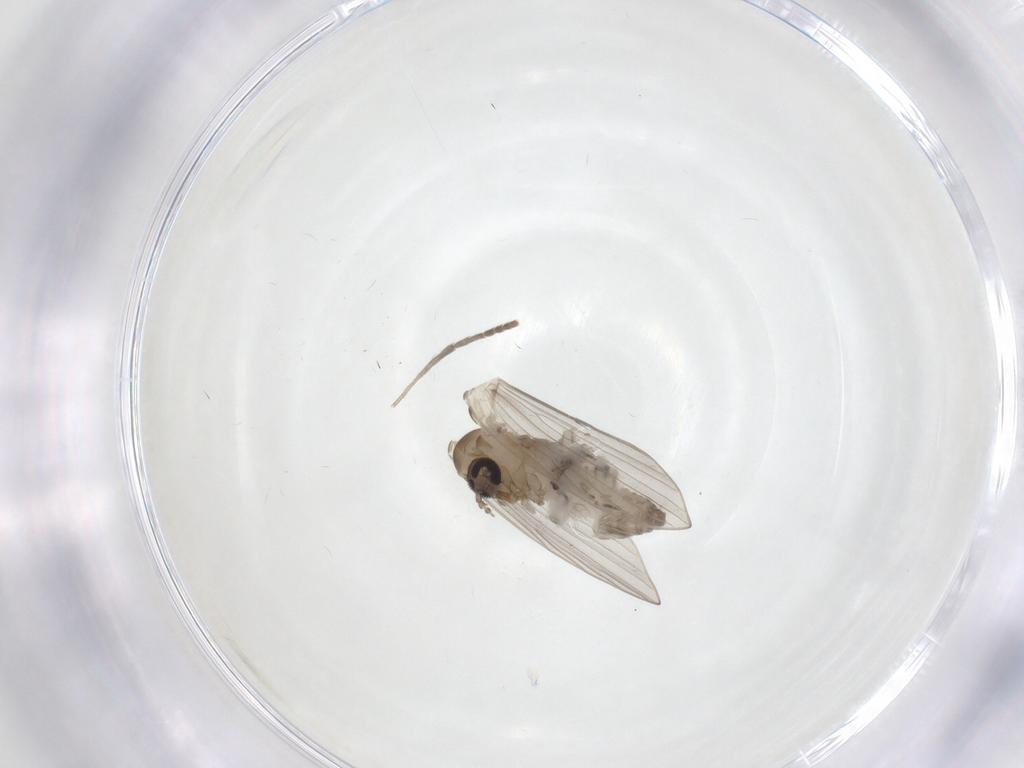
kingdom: Animalia
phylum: Arthropoda
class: Insecta
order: Diptera
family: Psychodidae
